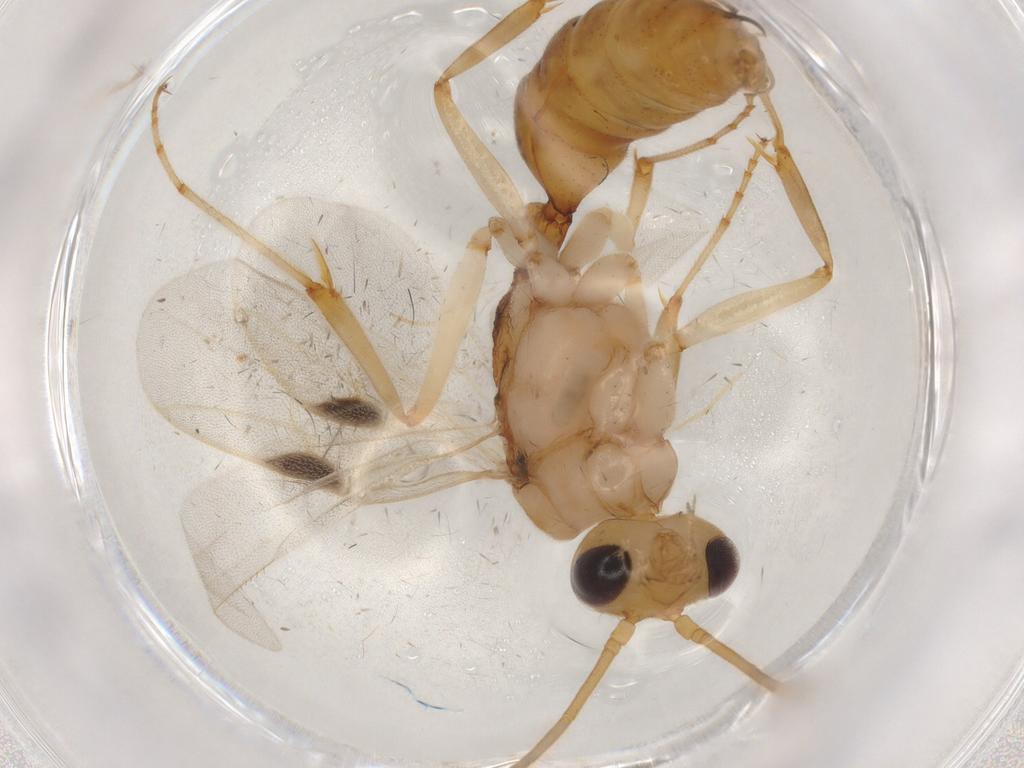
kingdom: Animalia
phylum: Arthropoda
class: Insecta
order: Hymenoptera
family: Formicidae
